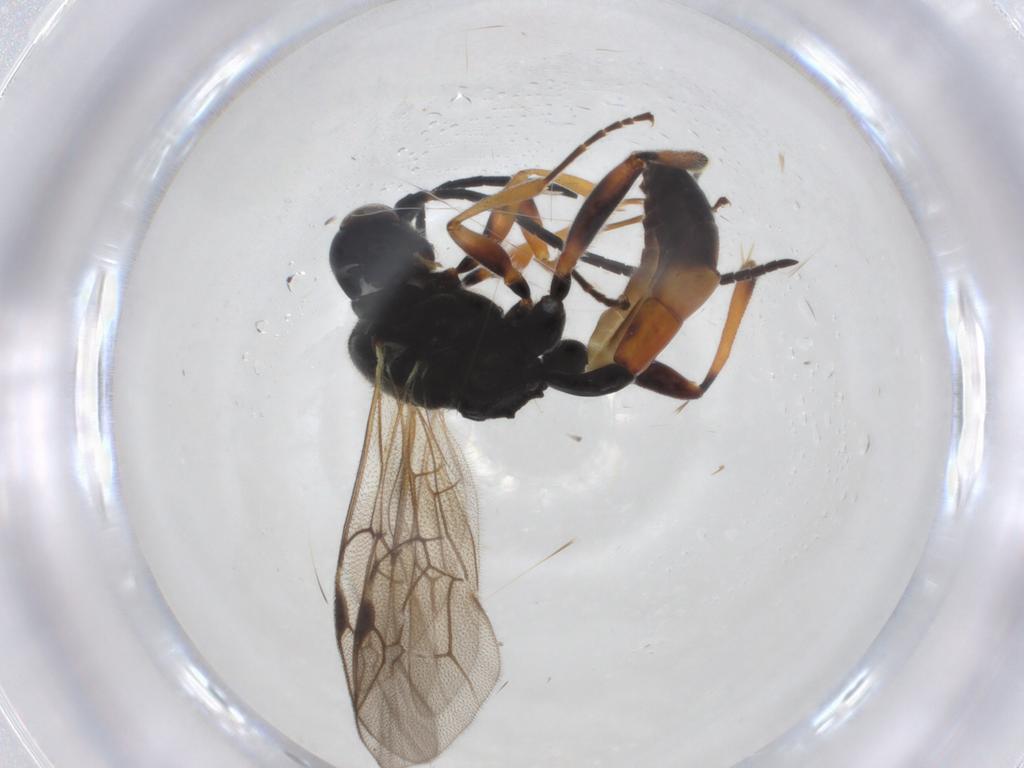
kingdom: Animalia
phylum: Arthropoda
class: Insecta
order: Hymenoptera
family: Ichneumonidae
